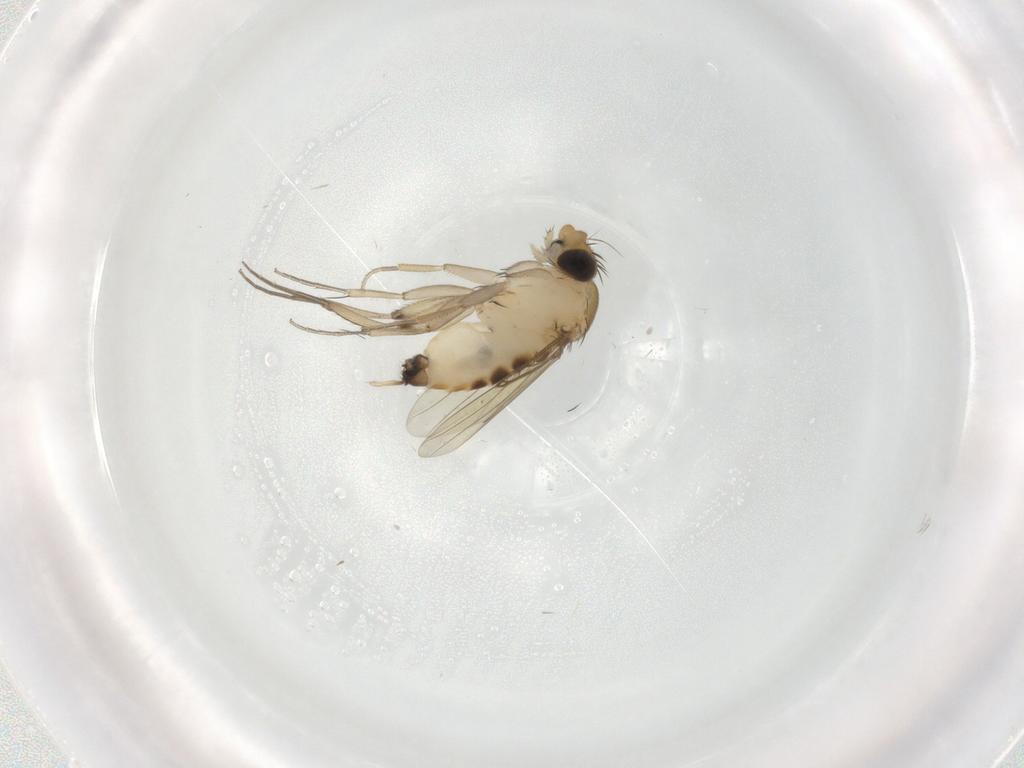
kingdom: Animalia
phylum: Arthropoda
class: Insecta
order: Diptera
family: Phoridae
